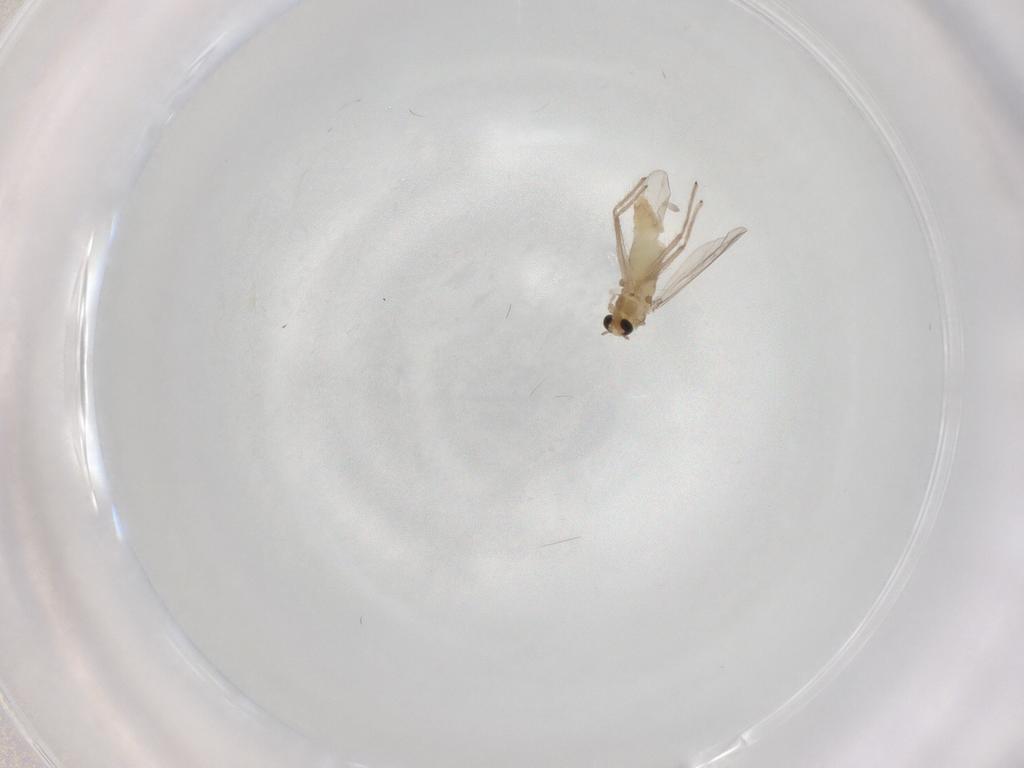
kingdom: Animalia
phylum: Arthropoda
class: Insecta
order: Diptera
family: Chironomidae
